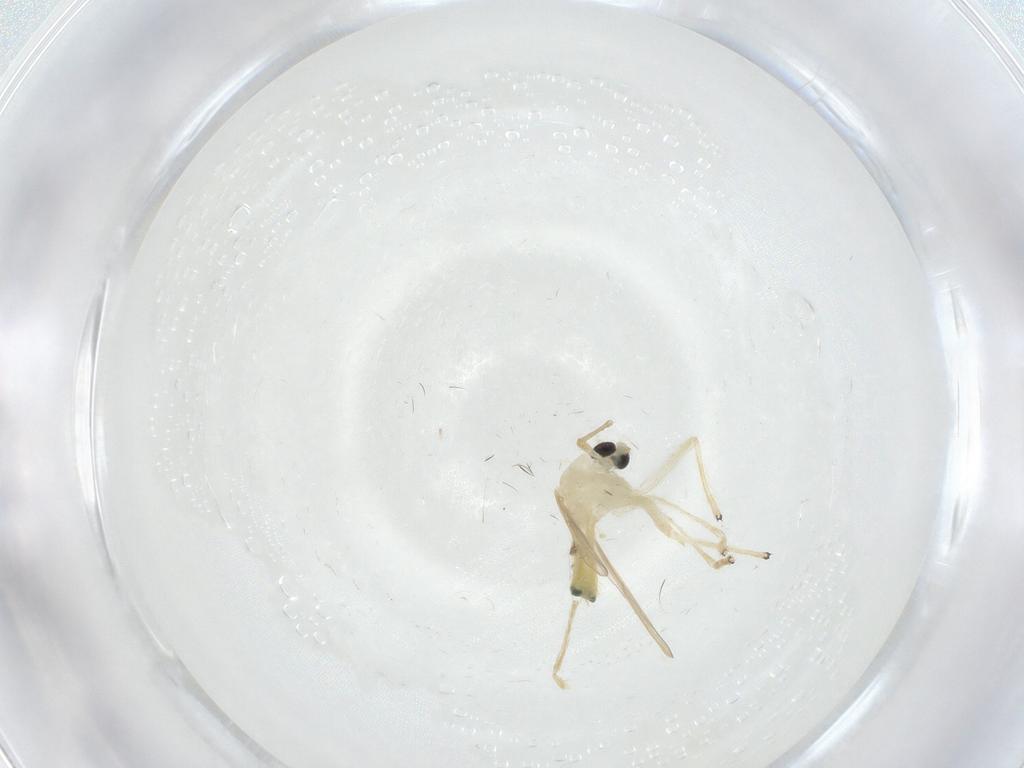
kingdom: Animalia
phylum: Arthropoda
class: Insecta
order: Diptera
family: Chironomidae
